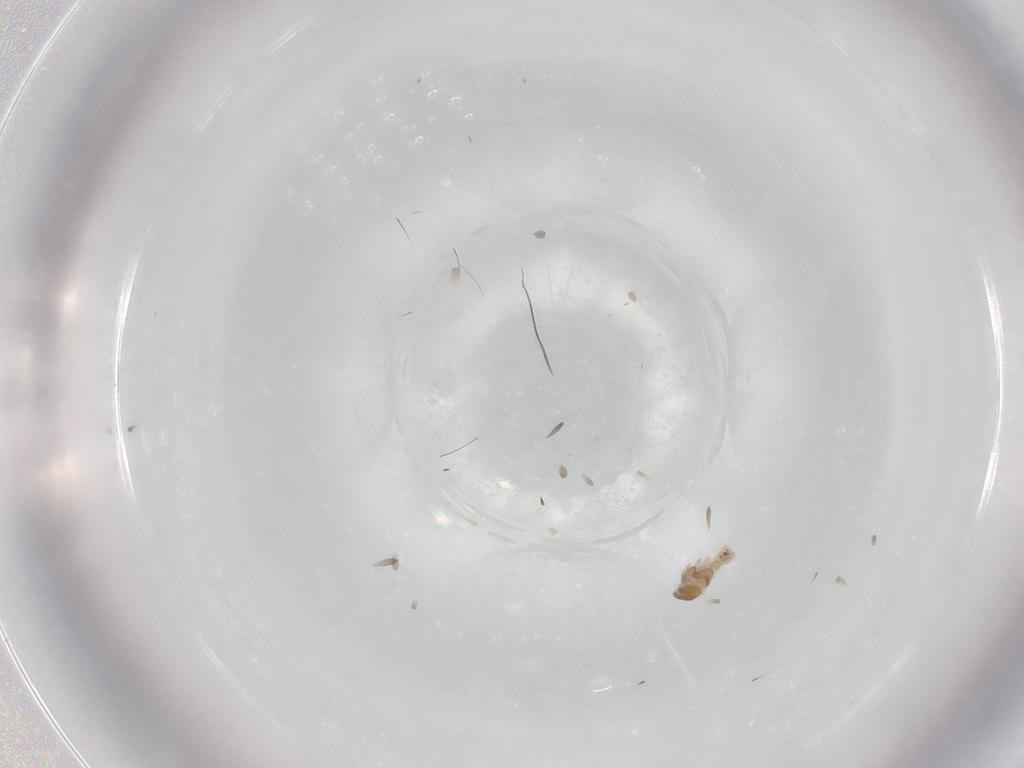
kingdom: Animalia
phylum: Arthropoda
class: Insecta
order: Diptera
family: Muscidae
